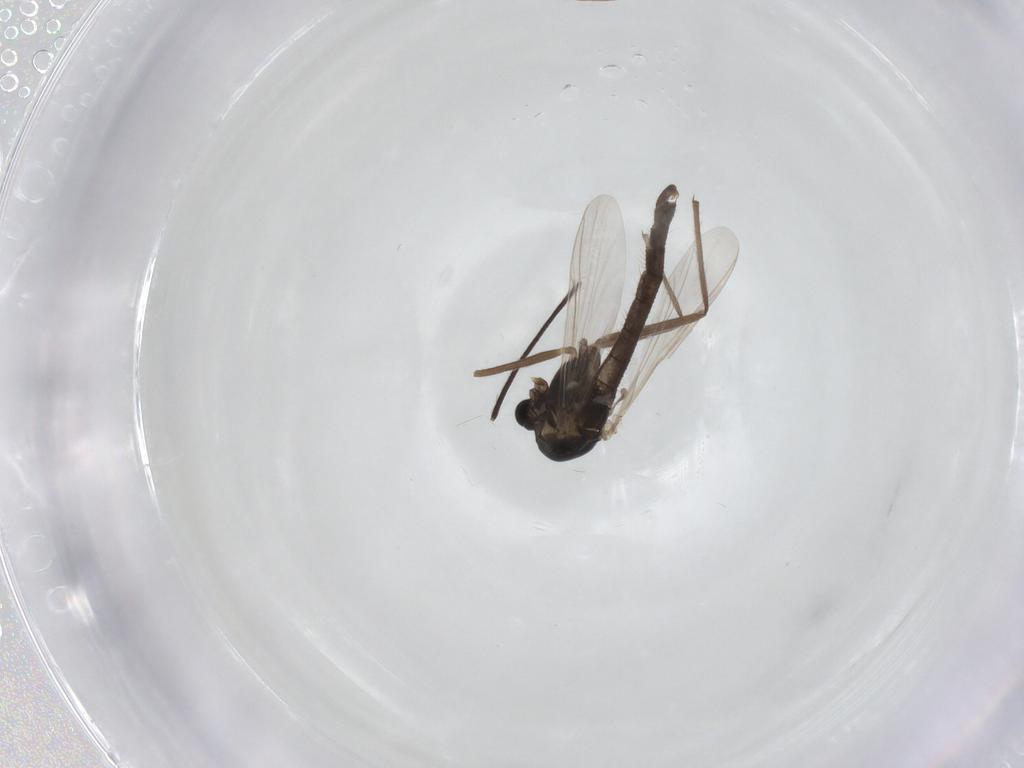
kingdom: Animalia
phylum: Arthropoda
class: Insecta
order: Diptera
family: Chironomidae
